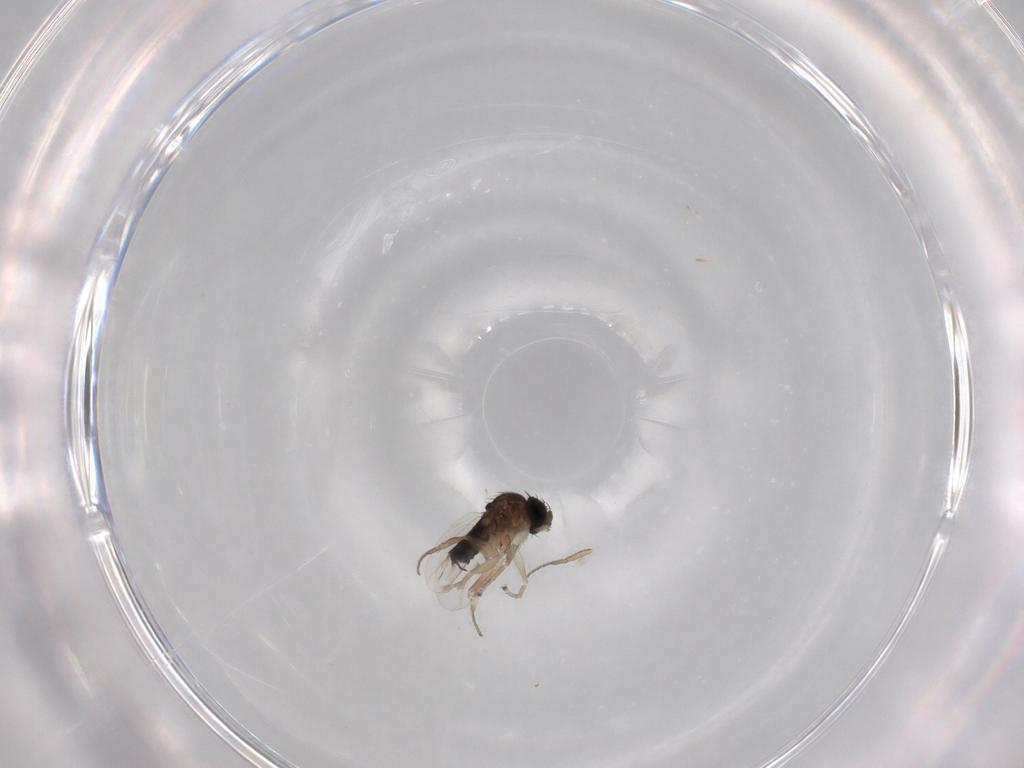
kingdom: Animalia
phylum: Arthropoda
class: Insecta
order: Diptera
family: Phoridae
